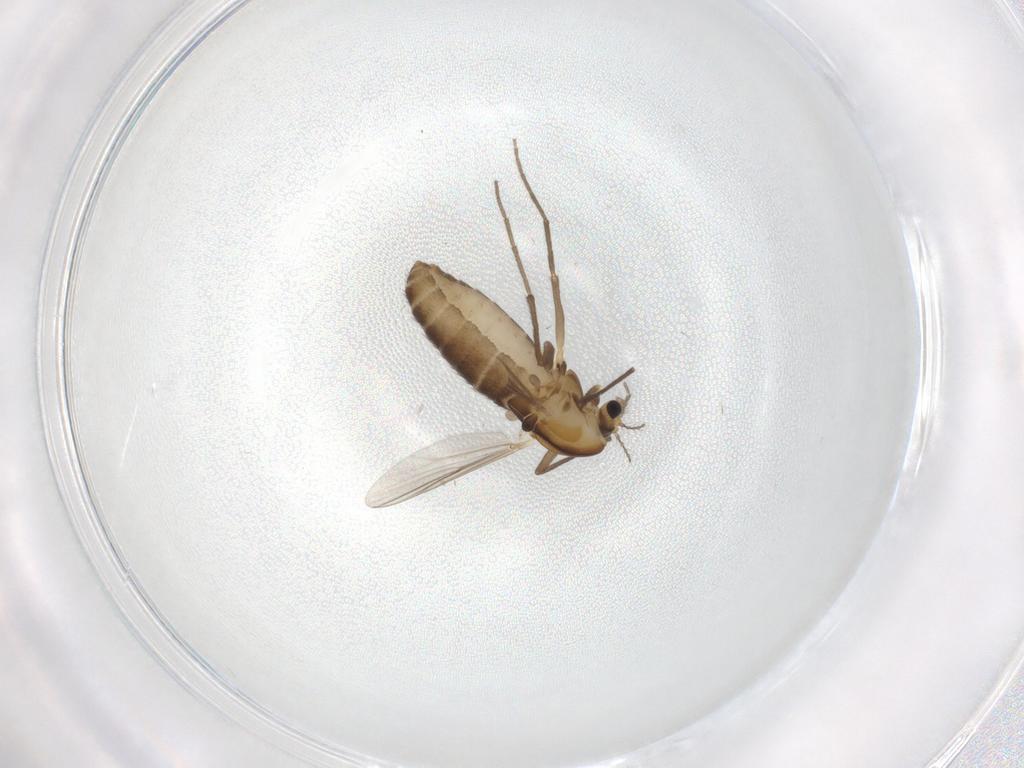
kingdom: Animalia
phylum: Arthropoda
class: Insecta
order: Diptera
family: Chironomidae
